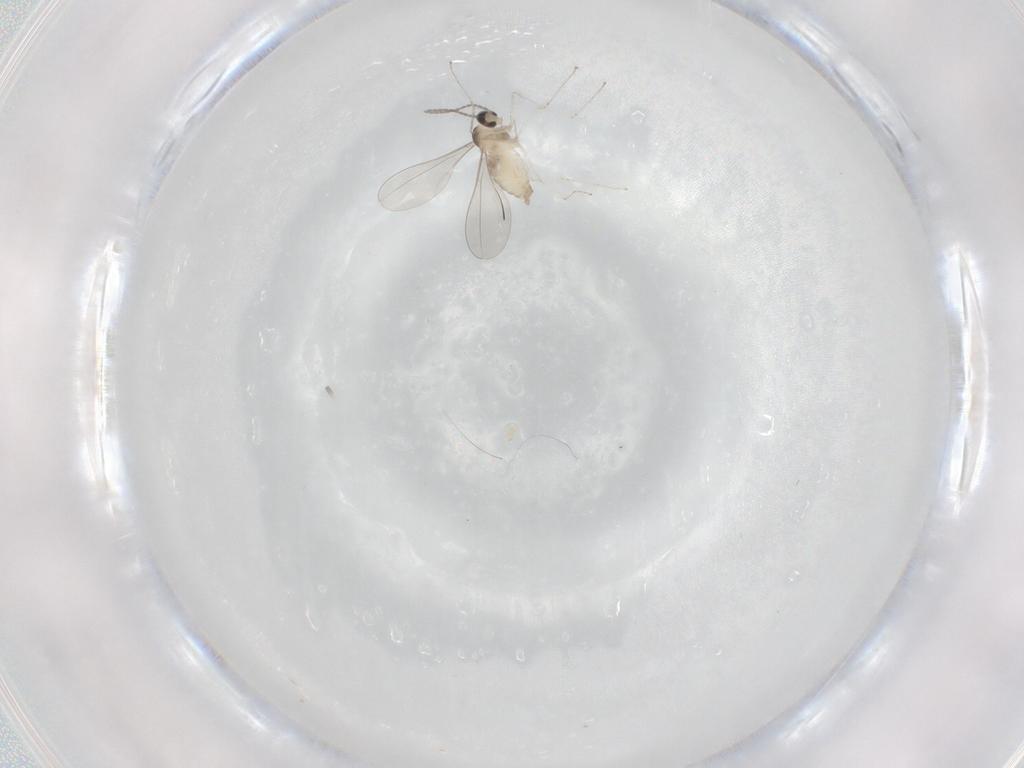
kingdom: Animalia
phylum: Arthropoda
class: Insecta
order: Diptera
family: Cecidomyiidae
